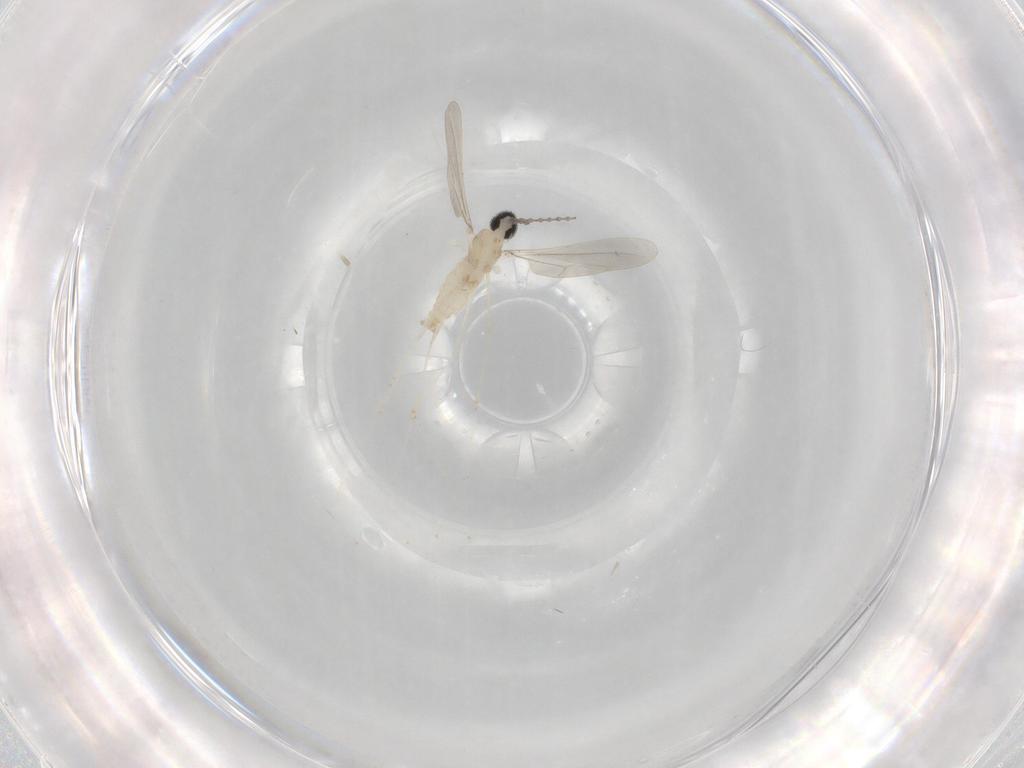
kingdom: Animalia
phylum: Arthropoda
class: Insecta
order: Diptera
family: Cecidomyiidae
